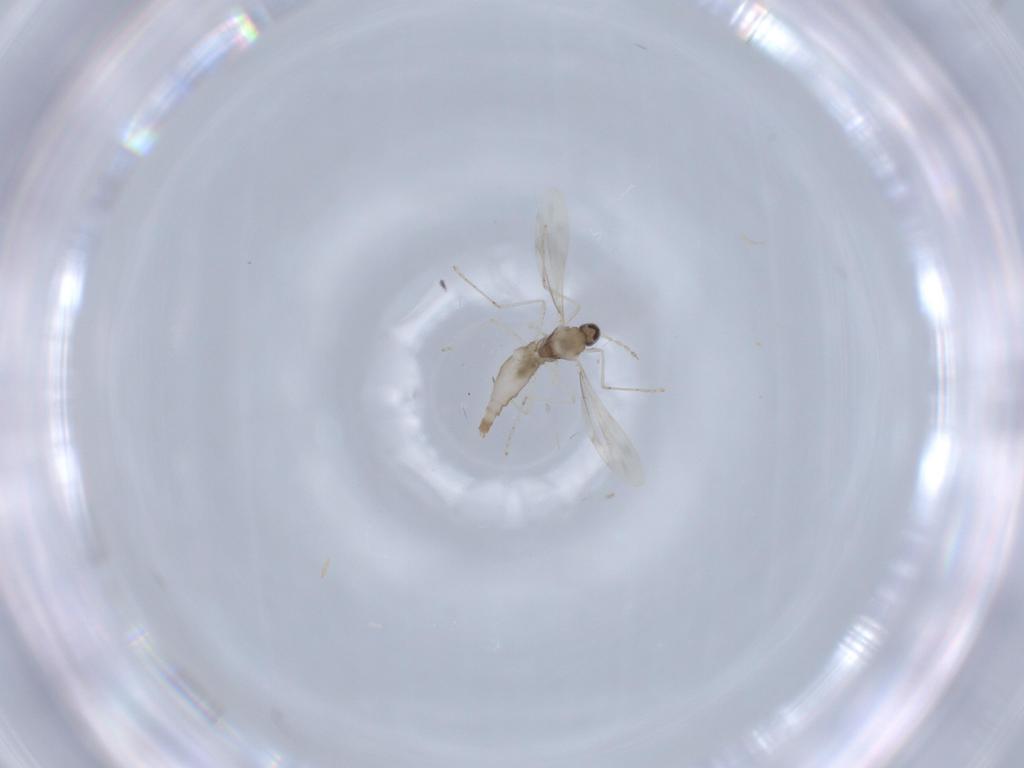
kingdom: Animalia
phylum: Arthropoda
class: Insecta
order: Diptera
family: Cecidomyiidae
